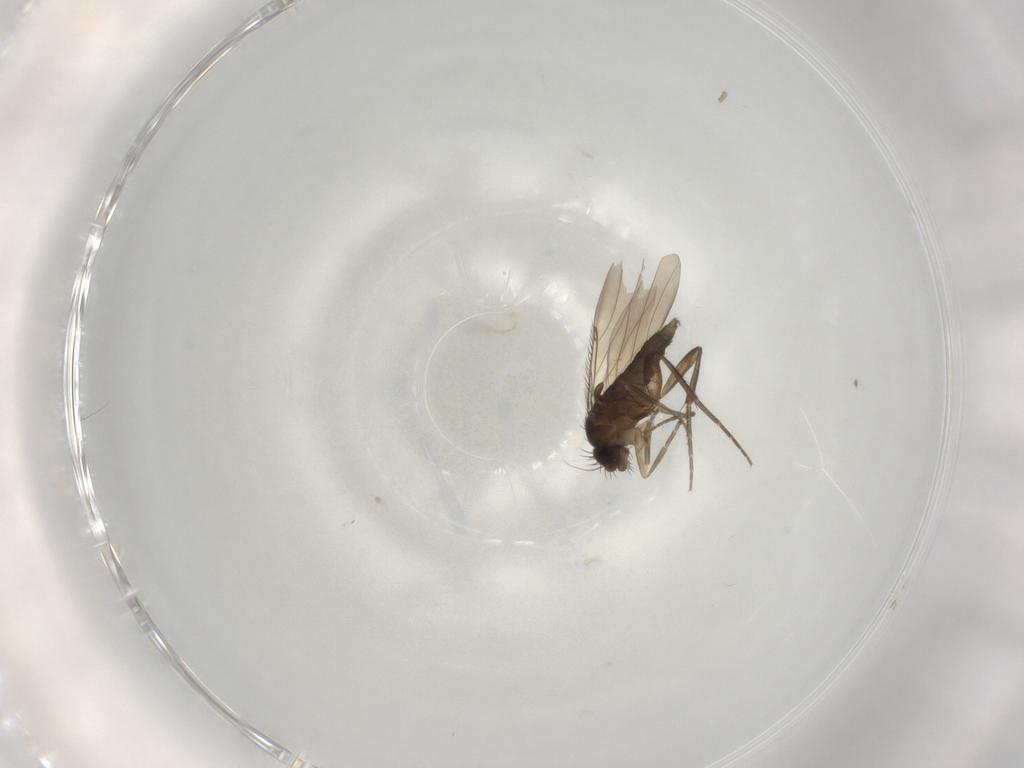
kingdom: Animalia
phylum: Arthropoda
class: Insecta
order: Diptera
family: Phoridae
